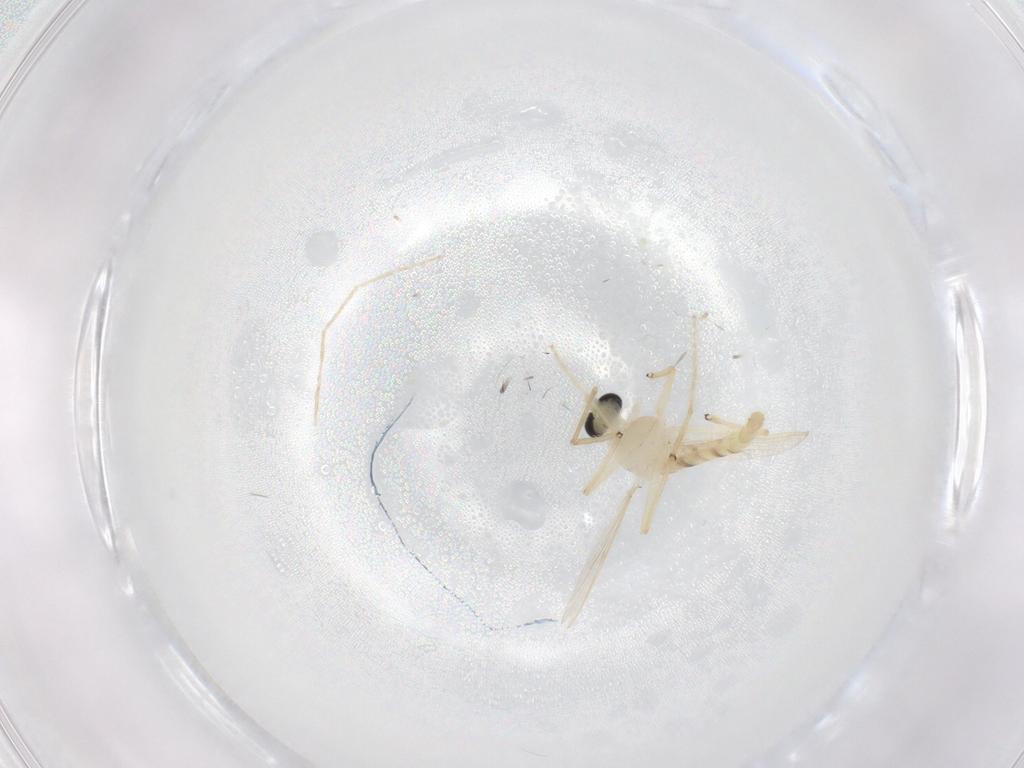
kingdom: Animalia
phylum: Arthropoda
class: Insecta
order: Diptera
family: Chironomidae
